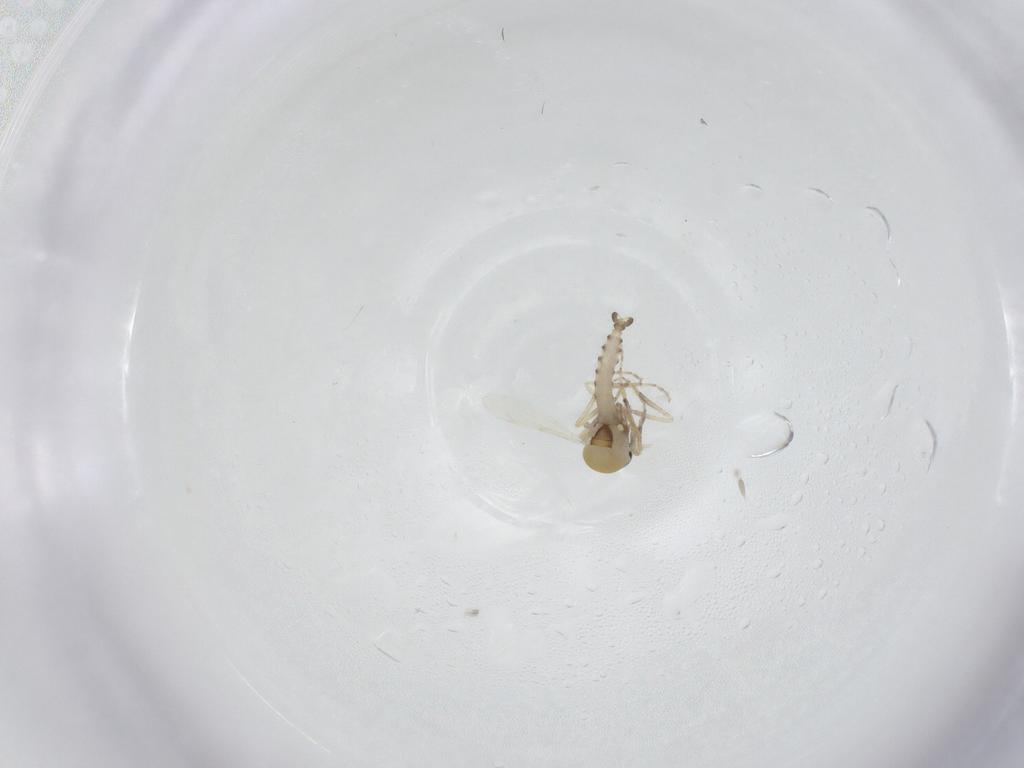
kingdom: Animalia
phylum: Arthropoda
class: Insecta
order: Diptera
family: Ceratopogonidae
